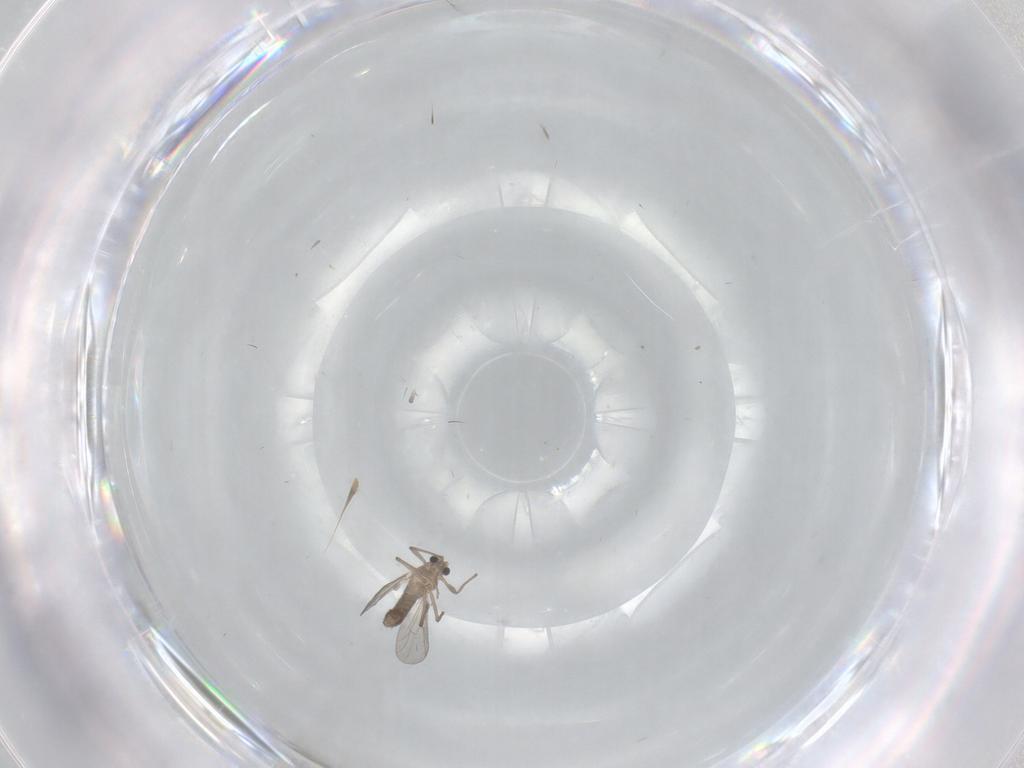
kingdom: Animalia
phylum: Arthropoda
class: Insecta
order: Diptera
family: Chironomidae
